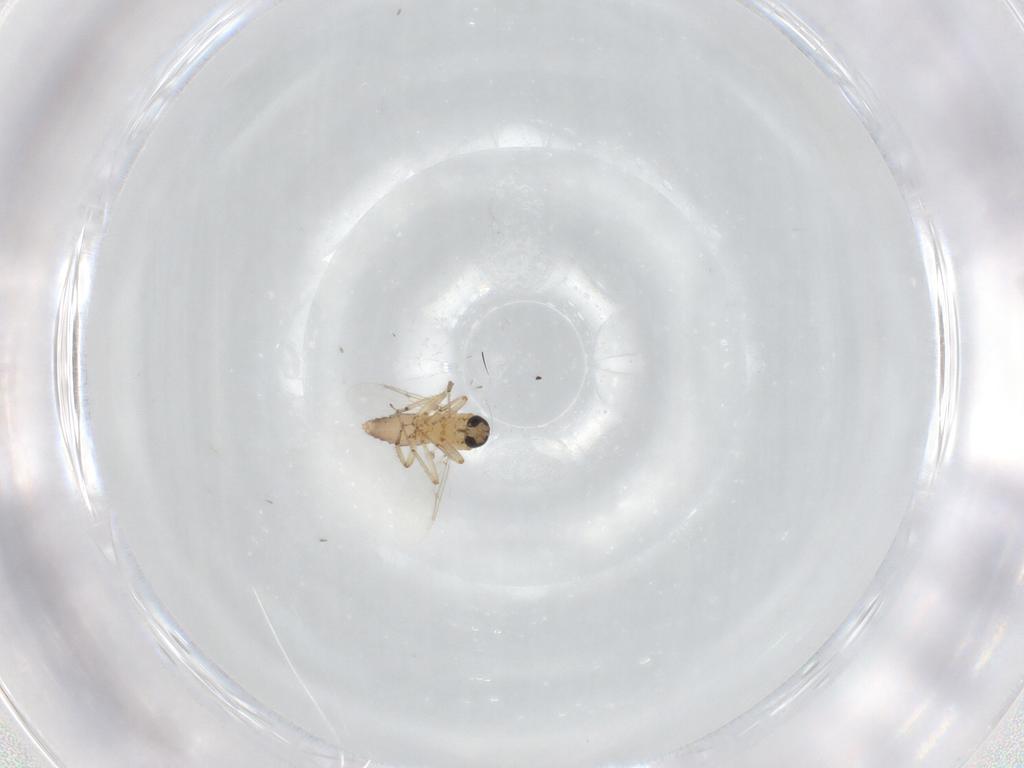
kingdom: Animalia
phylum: Arthropoda
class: Insecta
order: Diptera
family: Ceratopogonidae
